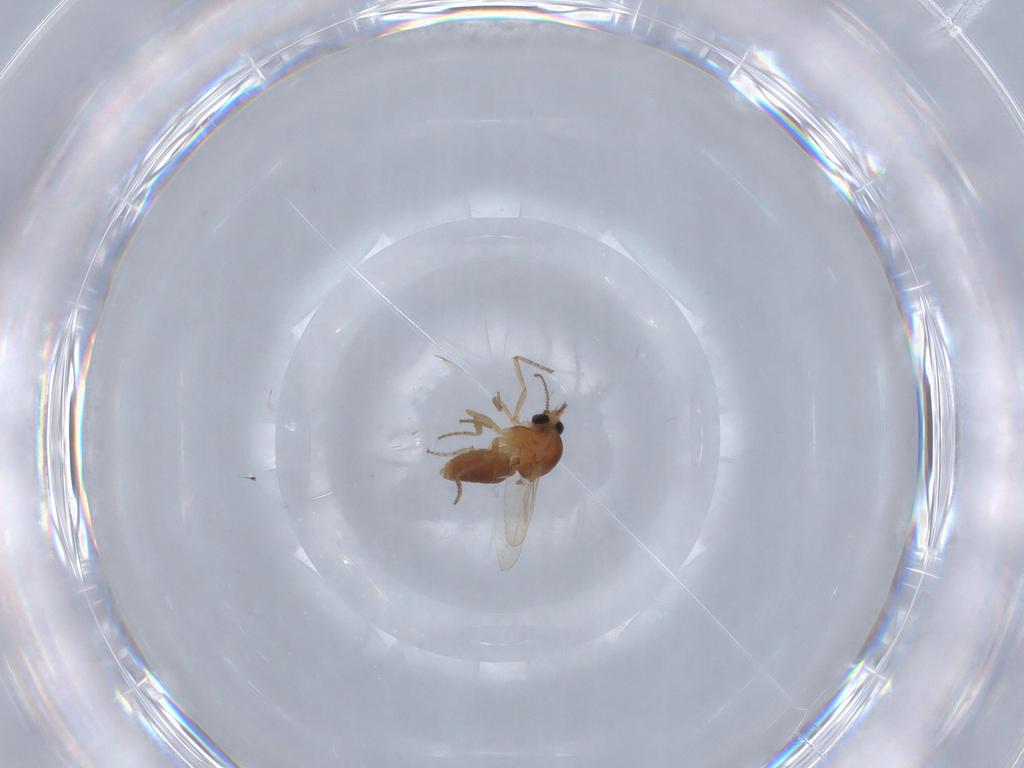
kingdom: Animalia
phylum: Arthropoda
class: Insecta
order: Diptera
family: Ceratopogonidae
